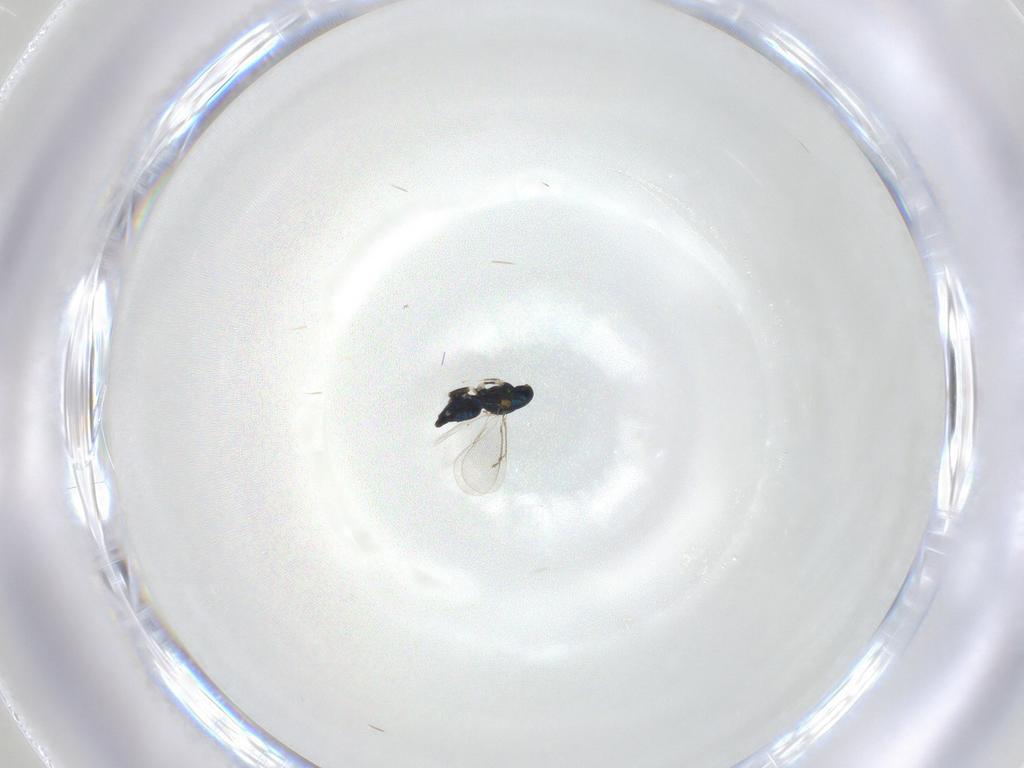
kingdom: Animalia
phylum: Arthropoda
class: Insecta
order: Hymenoptera
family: Eulophidae
